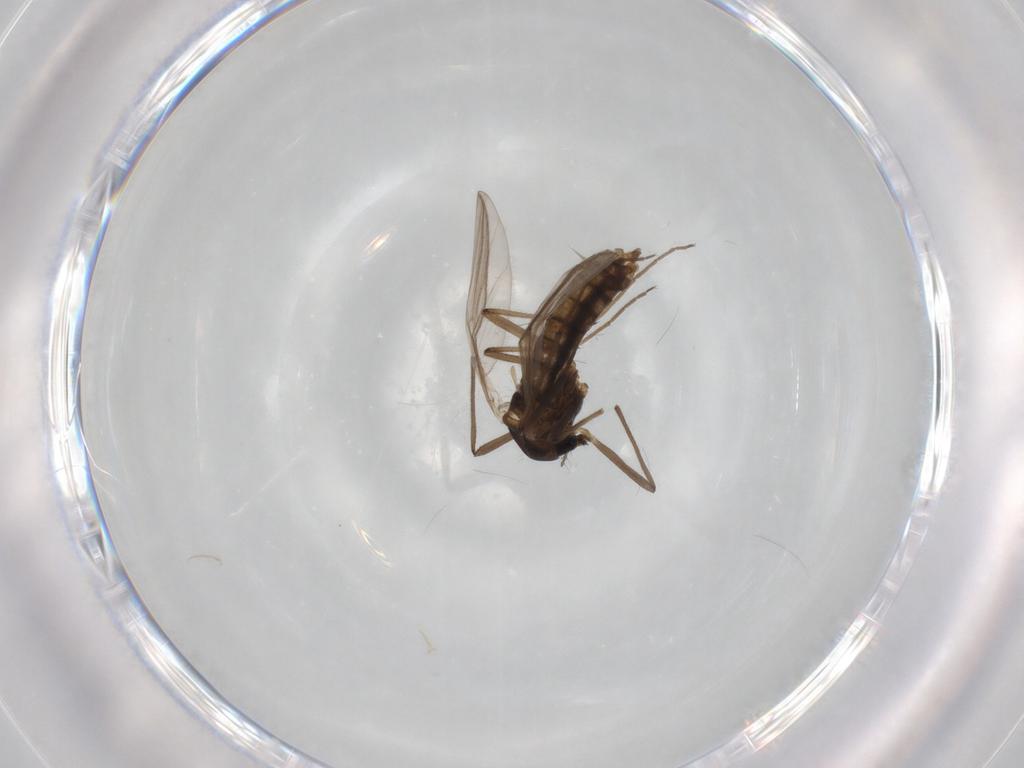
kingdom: Animalia
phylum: Arthropoda
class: Insecta
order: Diptera
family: Chironomidae
